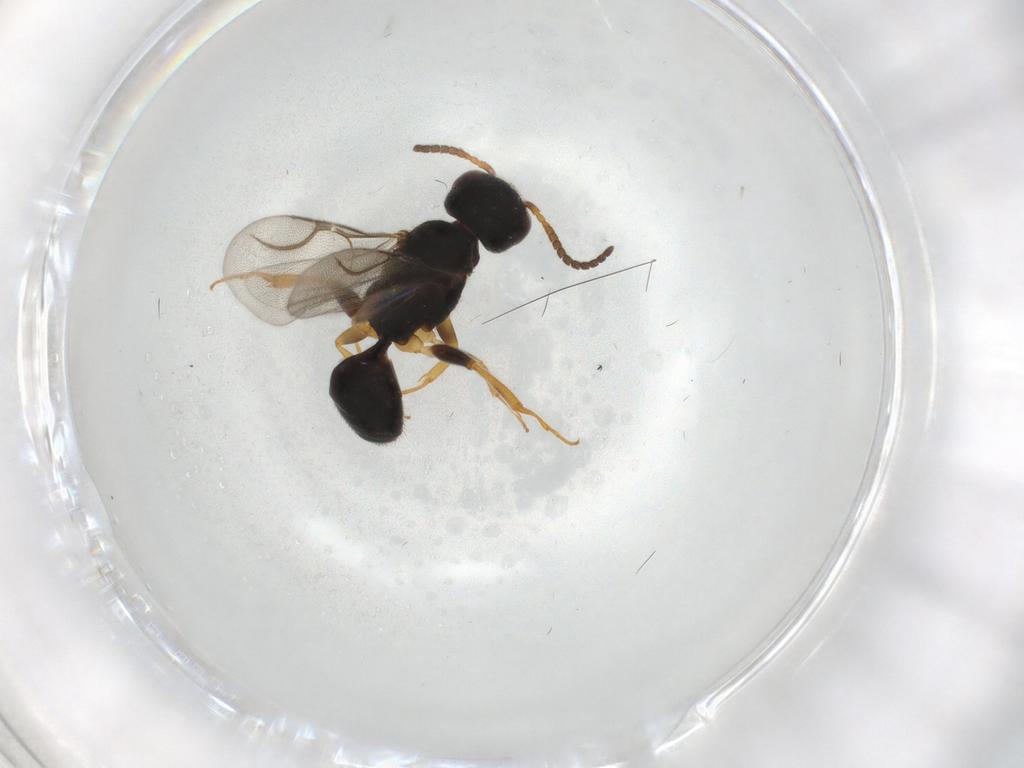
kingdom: Animalia
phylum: Arthropoda
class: Insecta
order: Hymenoptera
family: Bethylidae
